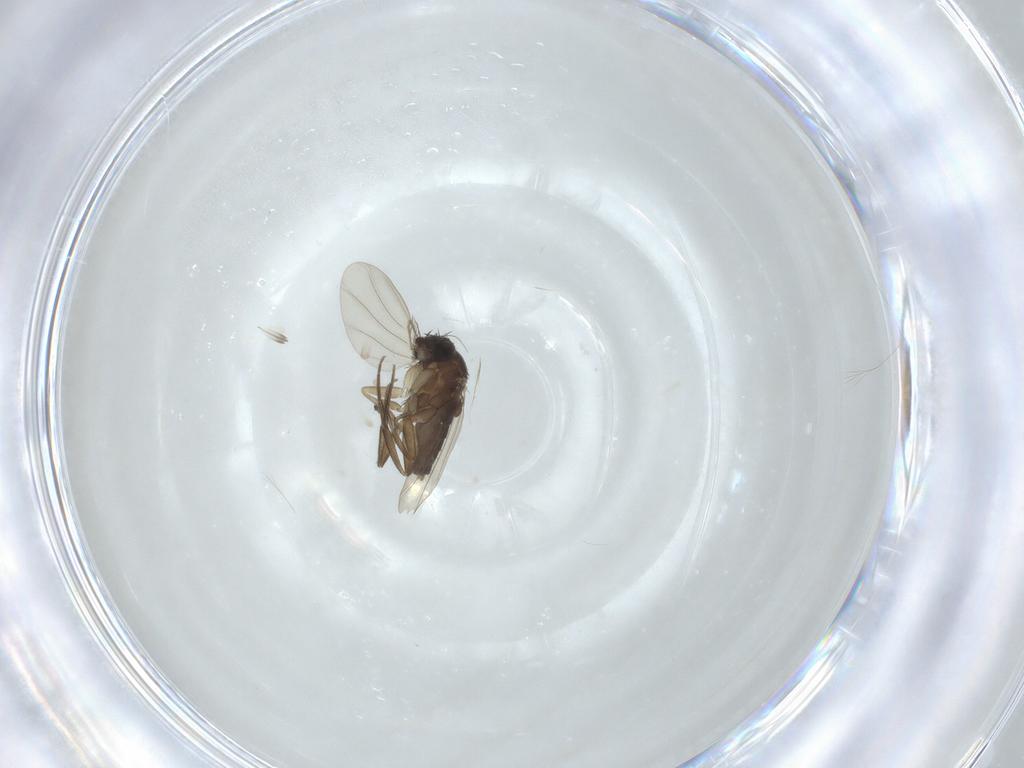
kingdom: Animalia
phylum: Arthropoda
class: Insecta
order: Diptera
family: Phoridae
